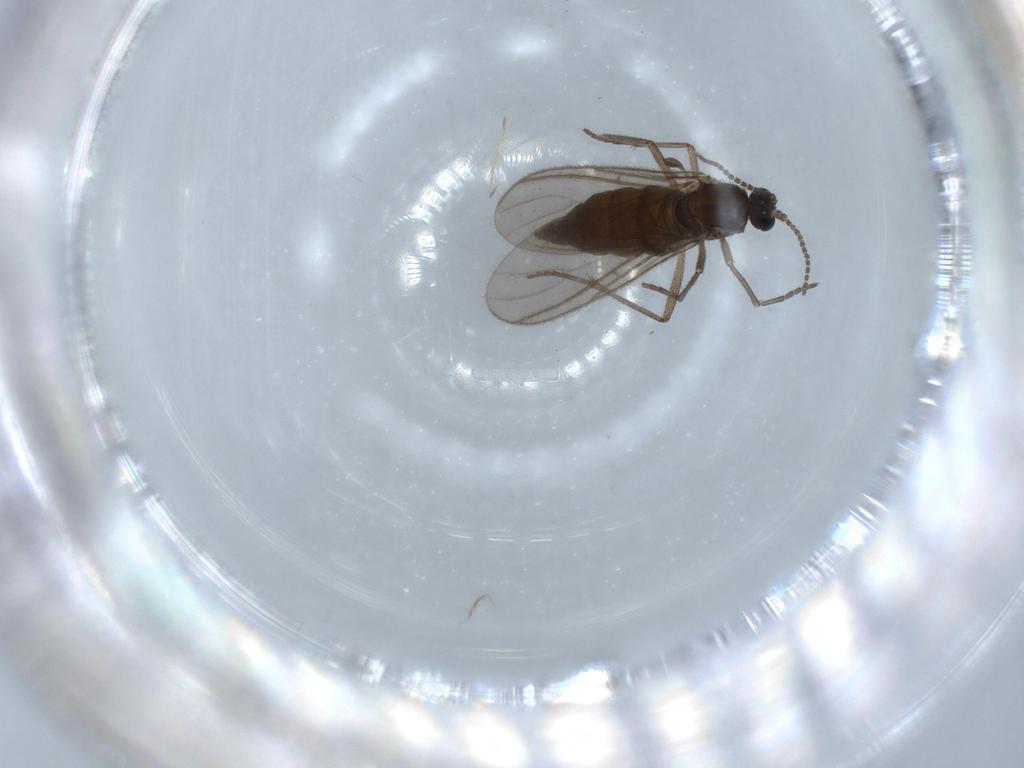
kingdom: Animalia
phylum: Arthropoda
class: Insecta
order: Diptera
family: Sciaridae
